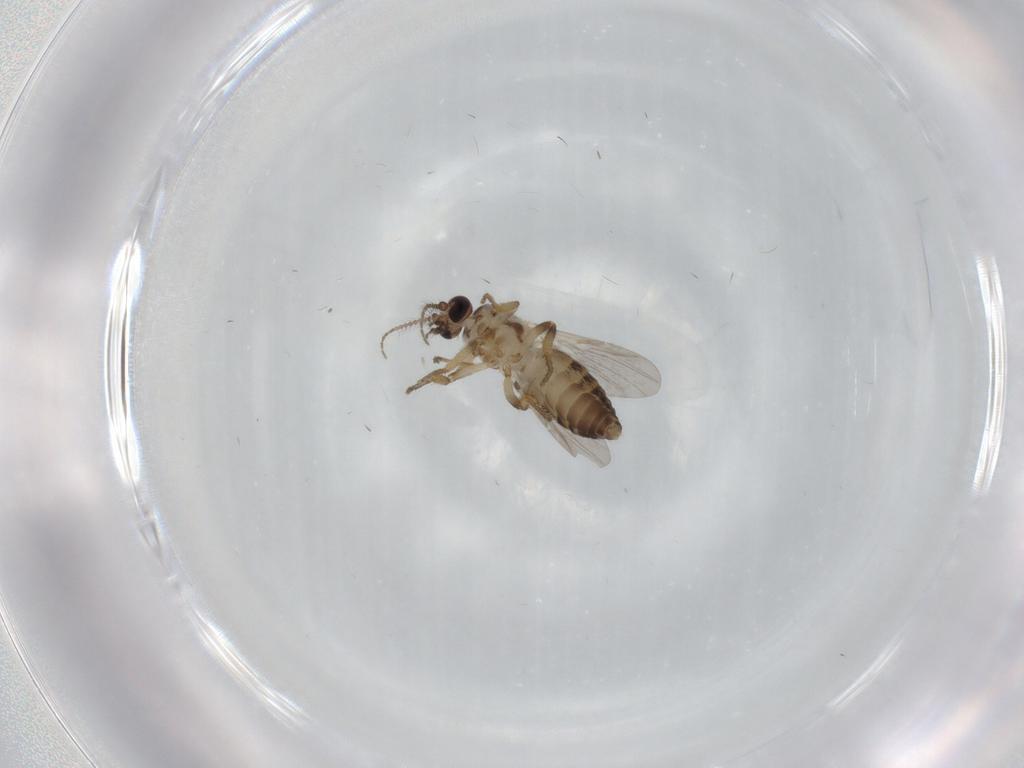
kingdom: Animalia
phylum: Arthropoda
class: Insecta
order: Diptera
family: Ceratopogonidae
